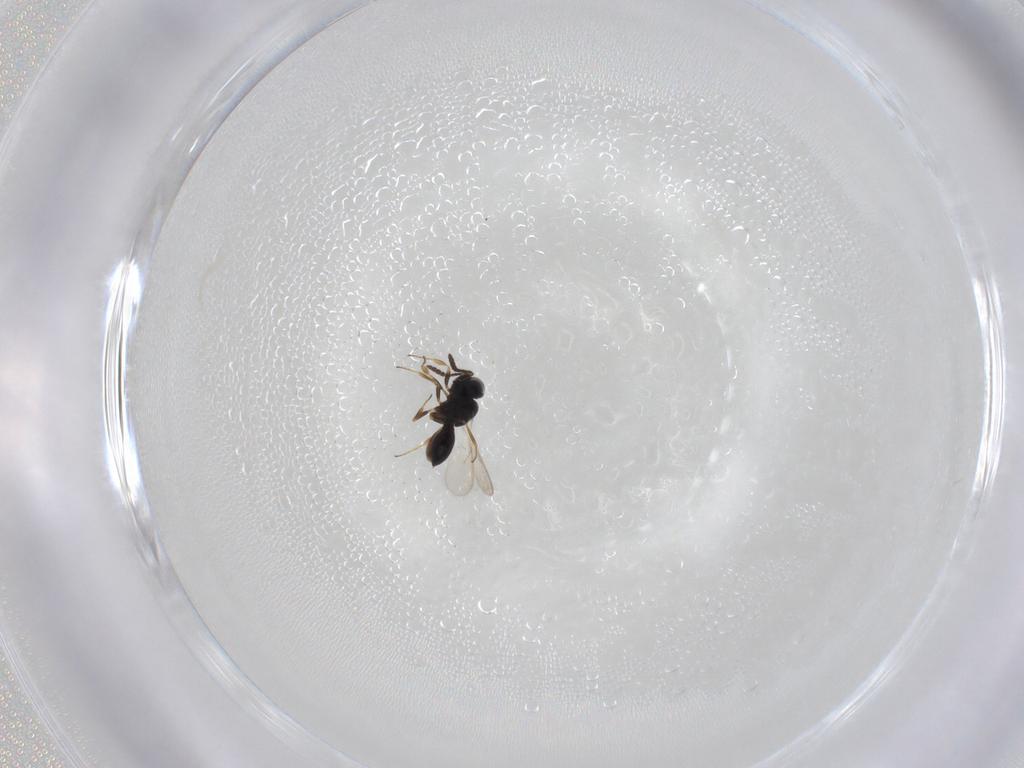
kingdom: Animalia
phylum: Arthropoda
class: Insecta
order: Hymenoptera
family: Scelionidae
